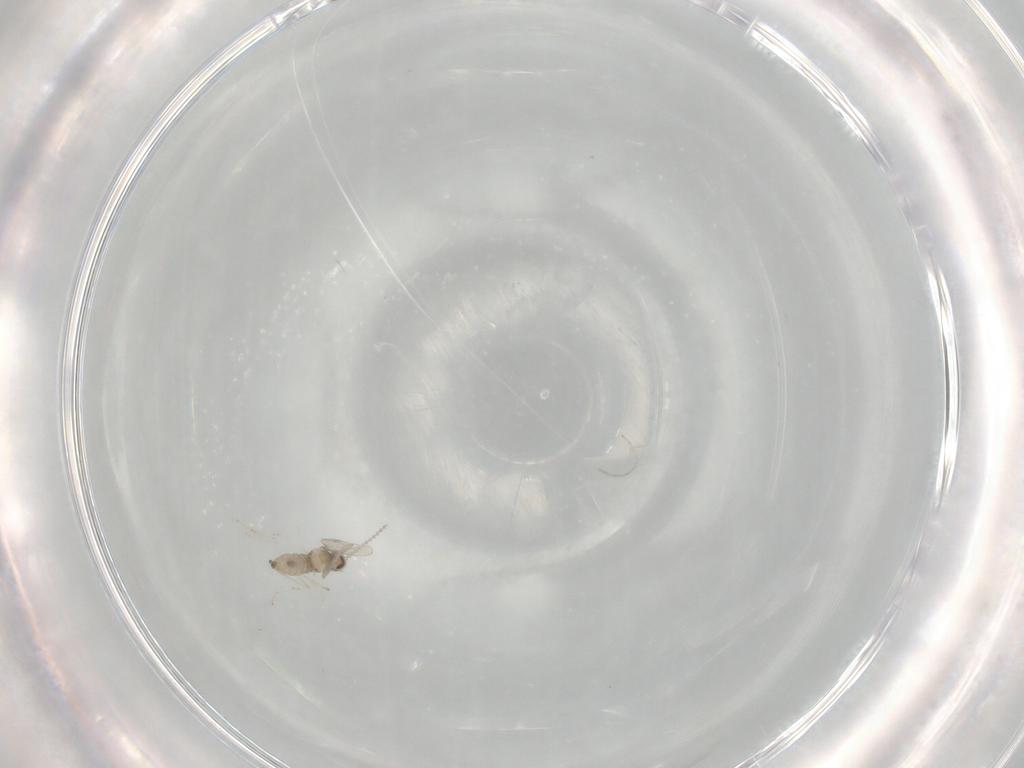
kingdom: Animalia
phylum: Arthropoda
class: Insecta
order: Diptera
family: Cecidomyiidae
